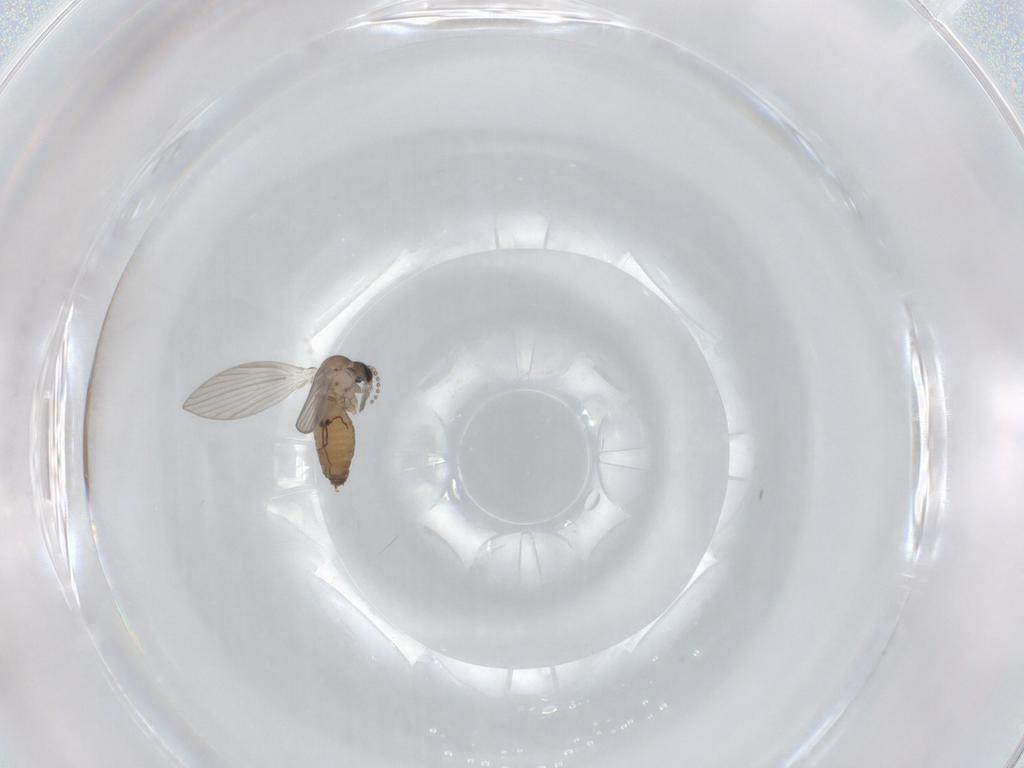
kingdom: Animalia
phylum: Arthropoda
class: Insecta
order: Diptera
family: Psychodidae
